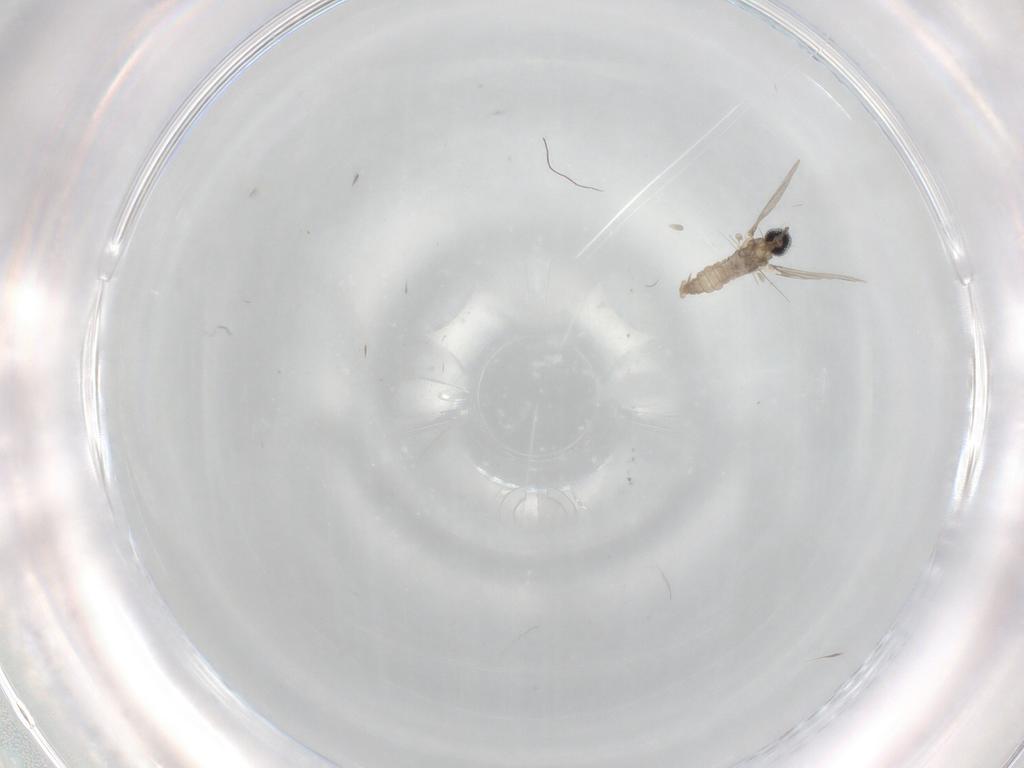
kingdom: Animalia
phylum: Arthropoda
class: Insecta
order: Diptera
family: Cecidomyiidae
